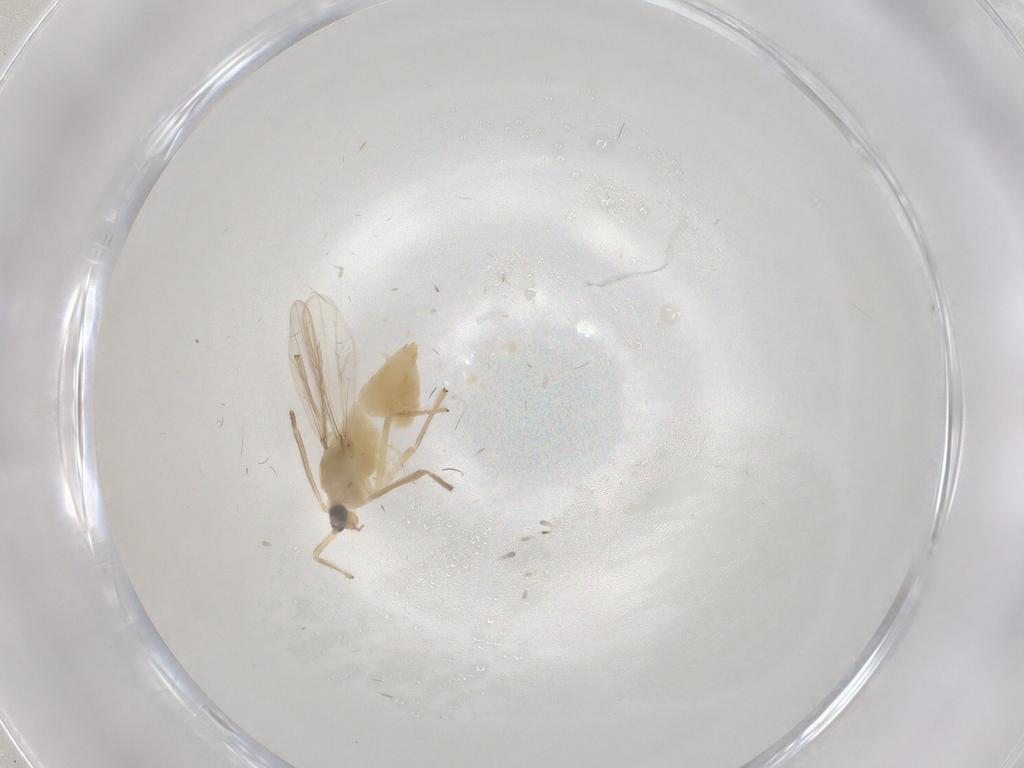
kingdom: Animalia
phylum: Arthropoda
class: Insecta
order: Diptera
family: Chironomidae
